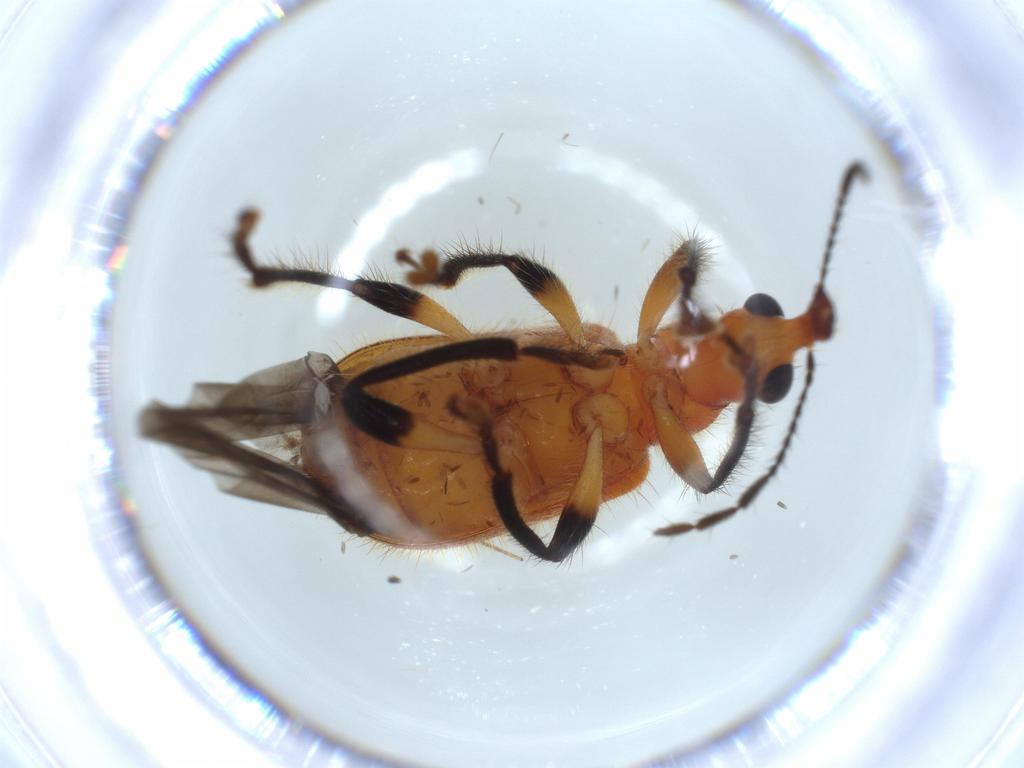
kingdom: Animalia
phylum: Arthropoda
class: Insecta
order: Coleoptera
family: Attelabidae
